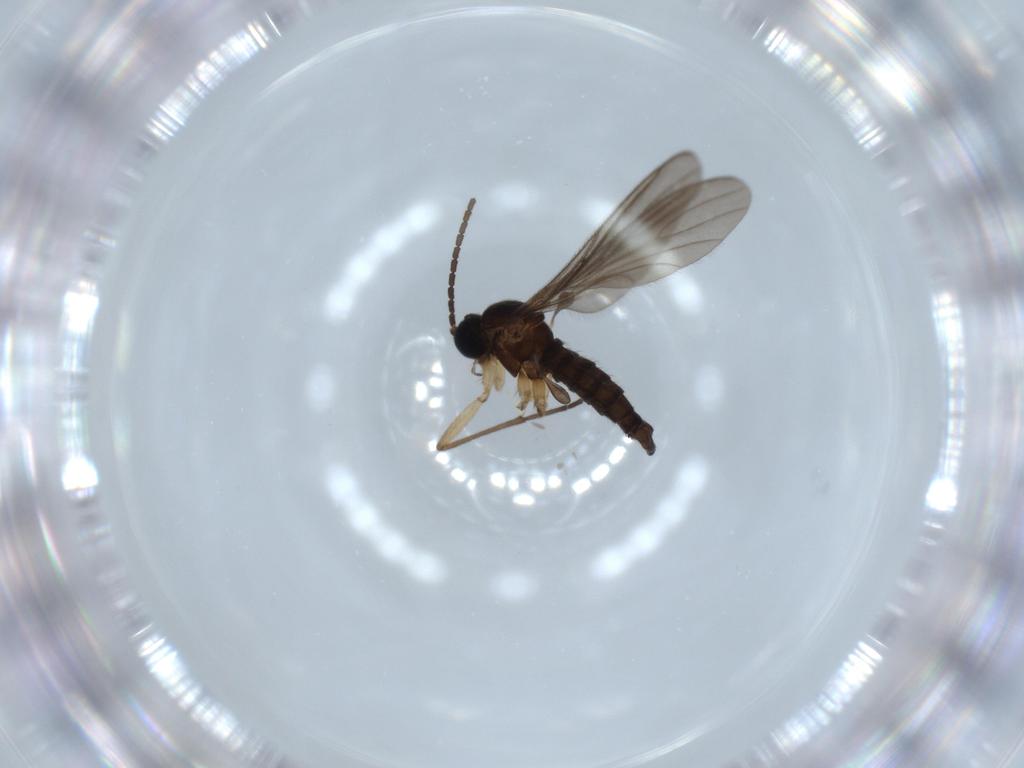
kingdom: Animalia
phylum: Arthropoda
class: Insecta
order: Diptera
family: Sciaridae
